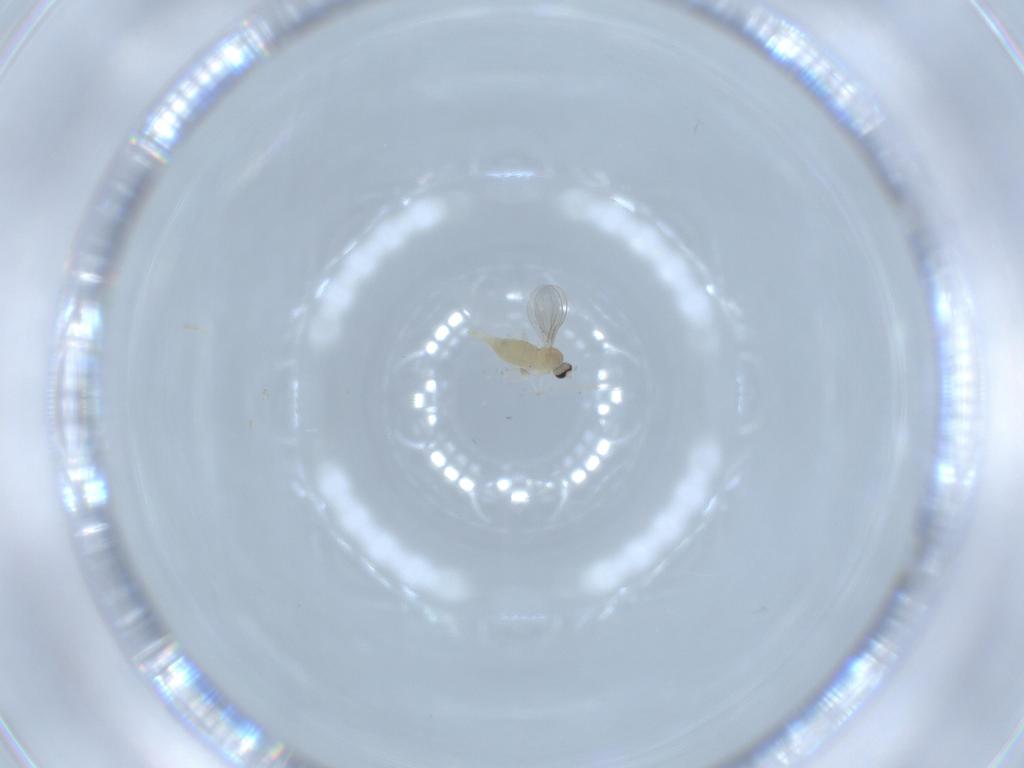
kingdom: Animalia
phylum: Arthropoda
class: Insecta
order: Diptera
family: Cecidomyiidae
